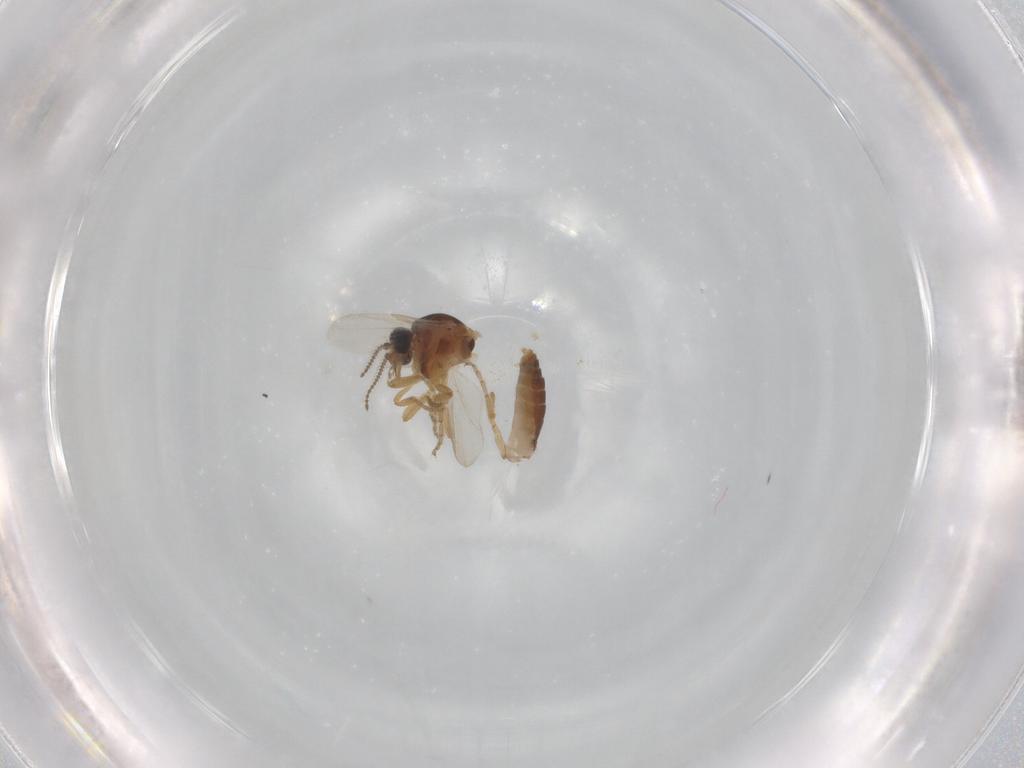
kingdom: Animalia
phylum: Arthropoda
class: Insecta
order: Diptera
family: Ceratopogonidae
